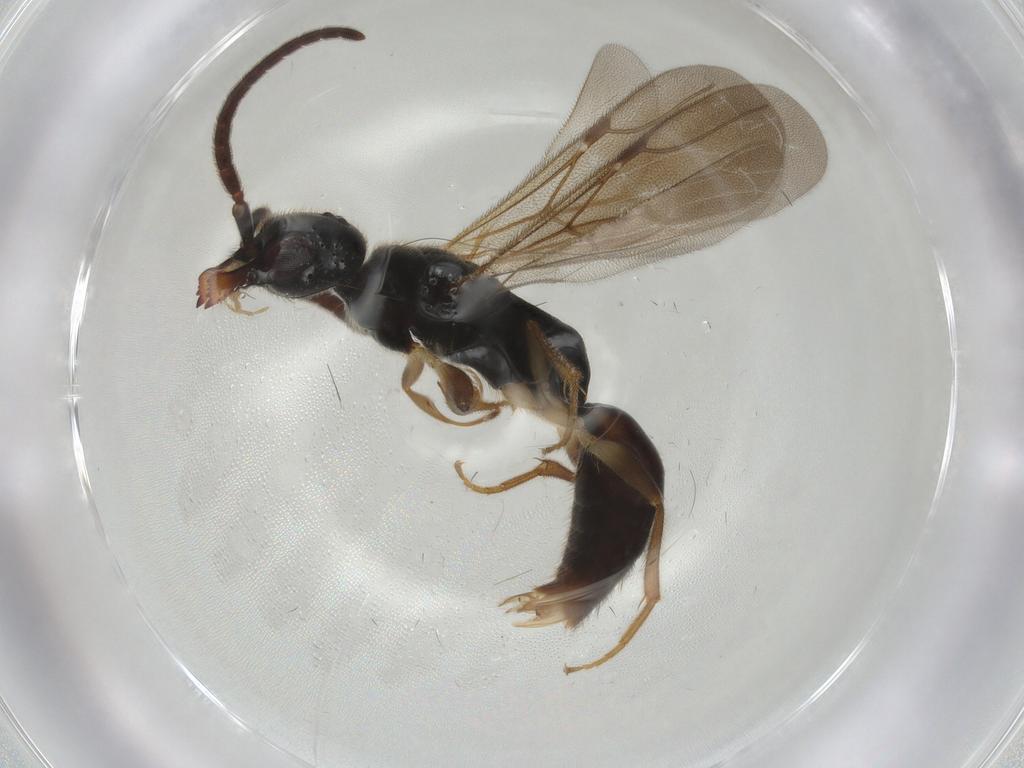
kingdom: Animalia
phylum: Arthropoda
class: Insecta
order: Hymenoptera
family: Bethylidae
